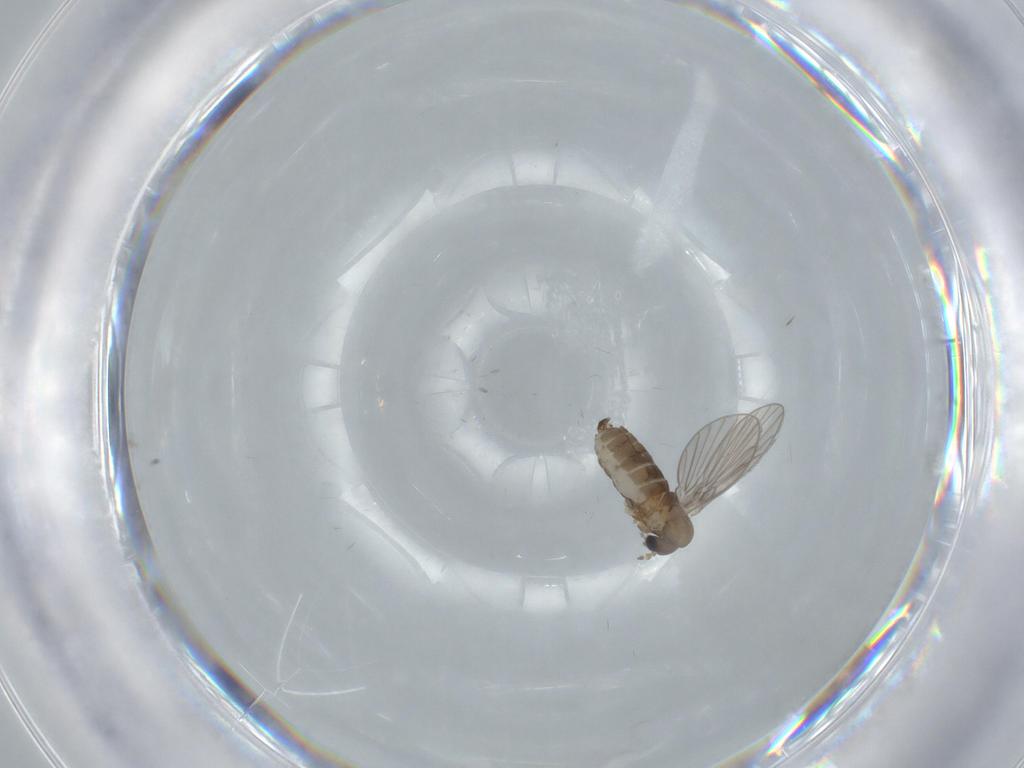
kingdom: Animalia
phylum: Arthropoda
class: Insecta
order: Diptera
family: Psychodidae
